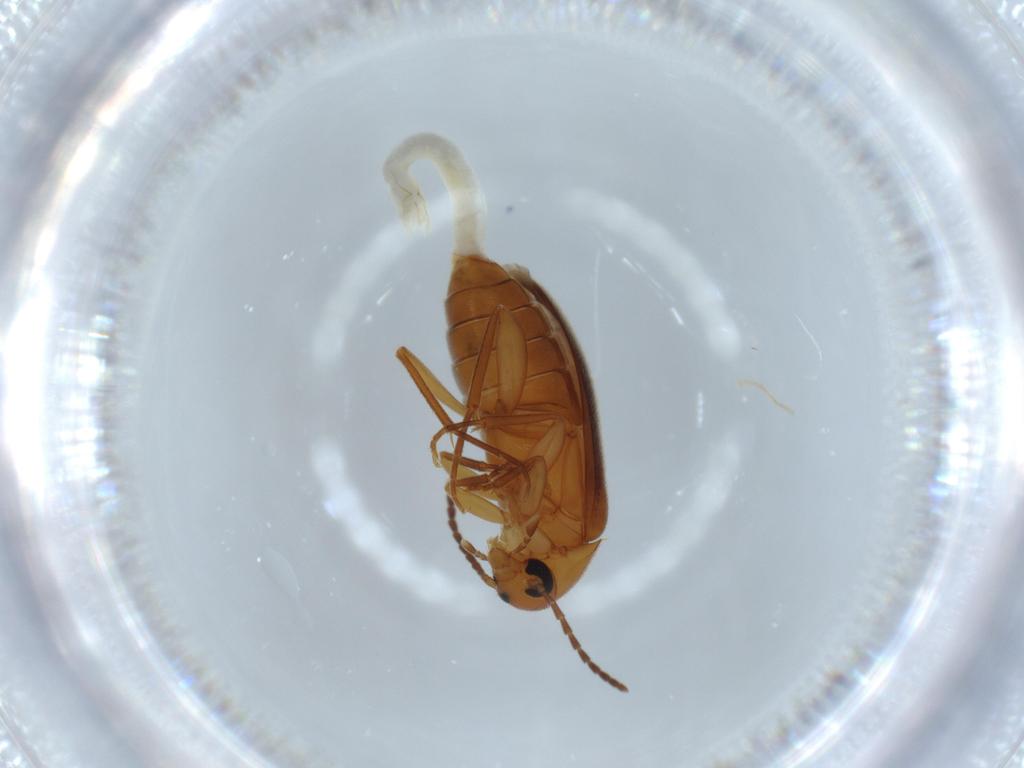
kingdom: Animalia
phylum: Arthropoda
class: Insecta
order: Coleoptera
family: Scraptiidae
